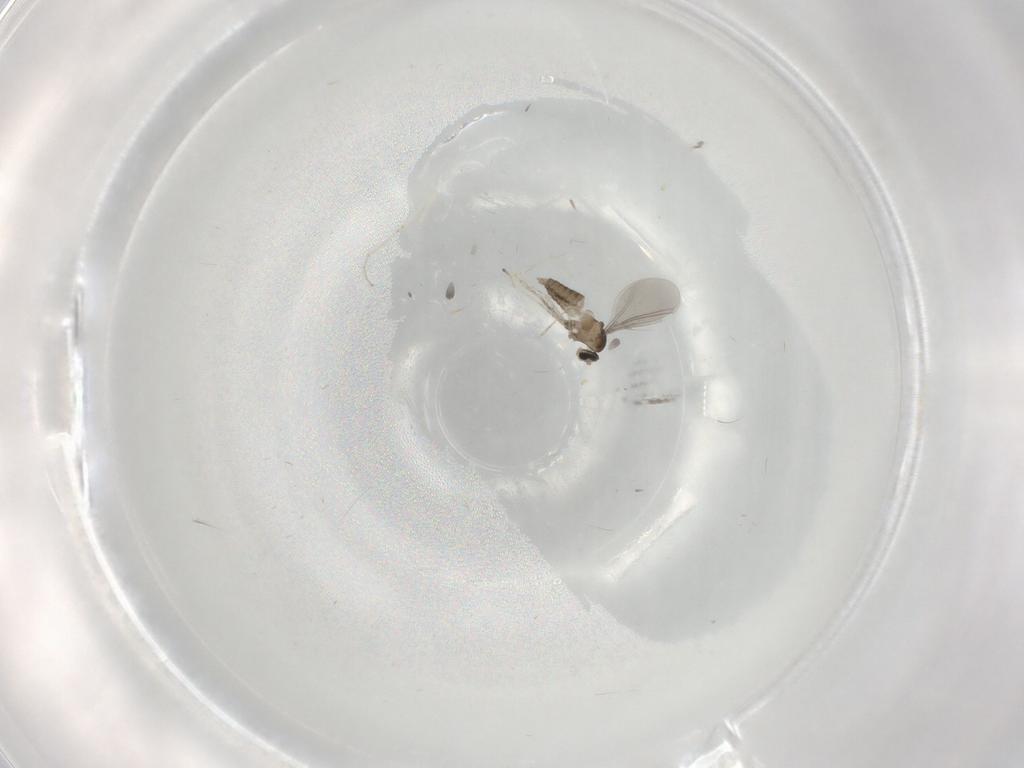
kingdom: Animalia
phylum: Arthropoda
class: Insecta
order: Diptera
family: Cecidomyiidae
